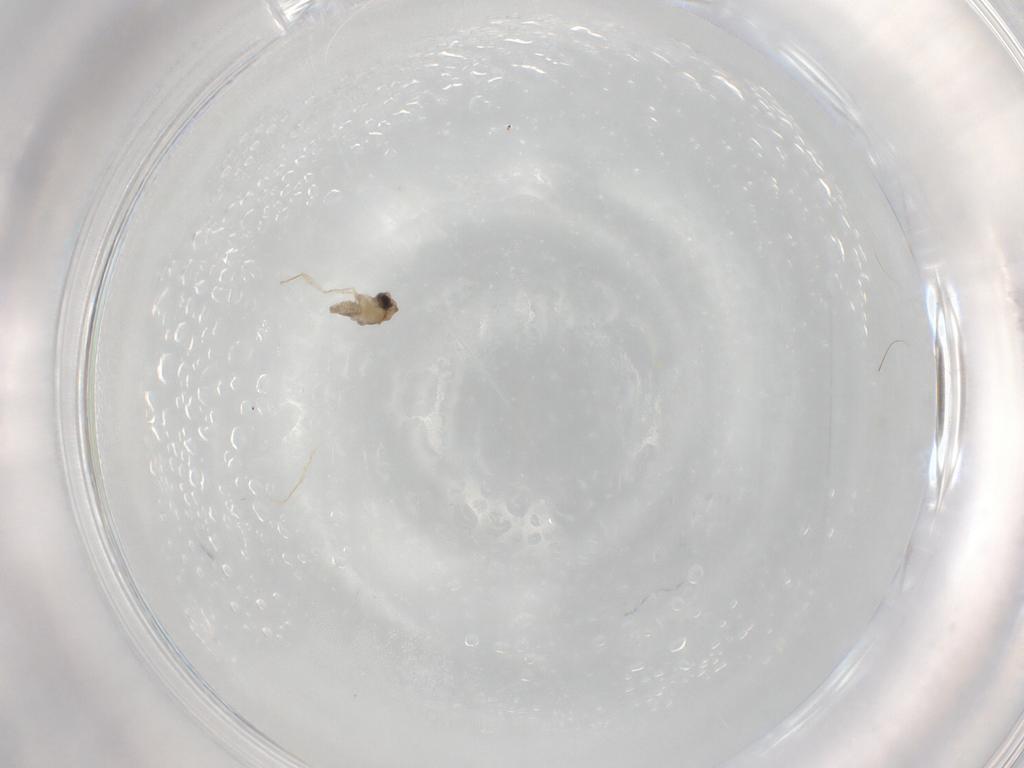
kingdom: Animalia
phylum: Arthropoda
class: Insecta
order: Diptera
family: Cecidomyiidae
